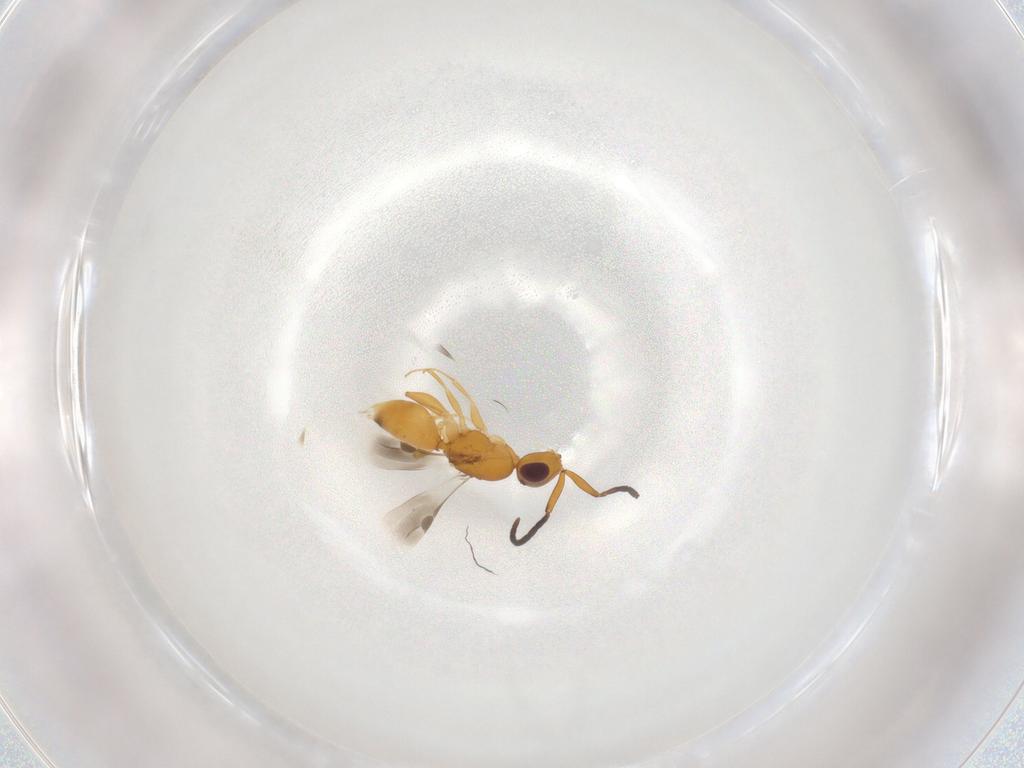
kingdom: Animalia
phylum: Arthropoda
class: Insecta
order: Hymenoptera
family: Megaspilidae
